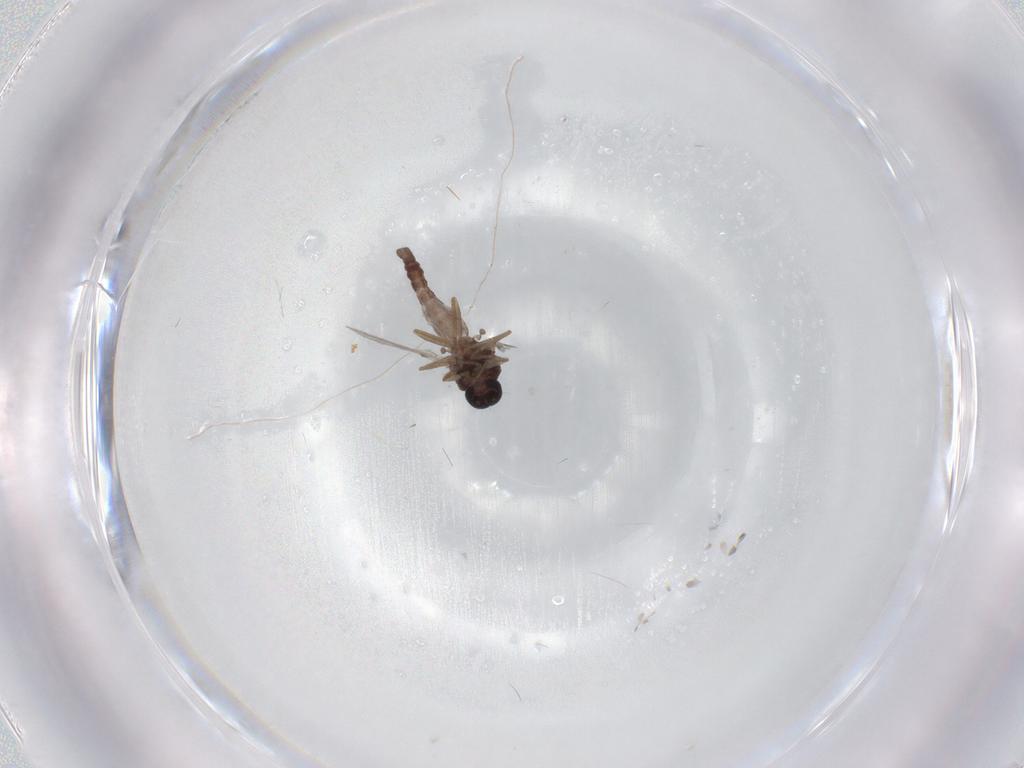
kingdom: Animalia
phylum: Arthropoda
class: Insecta
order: Diptera
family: Ceratopogonidae
